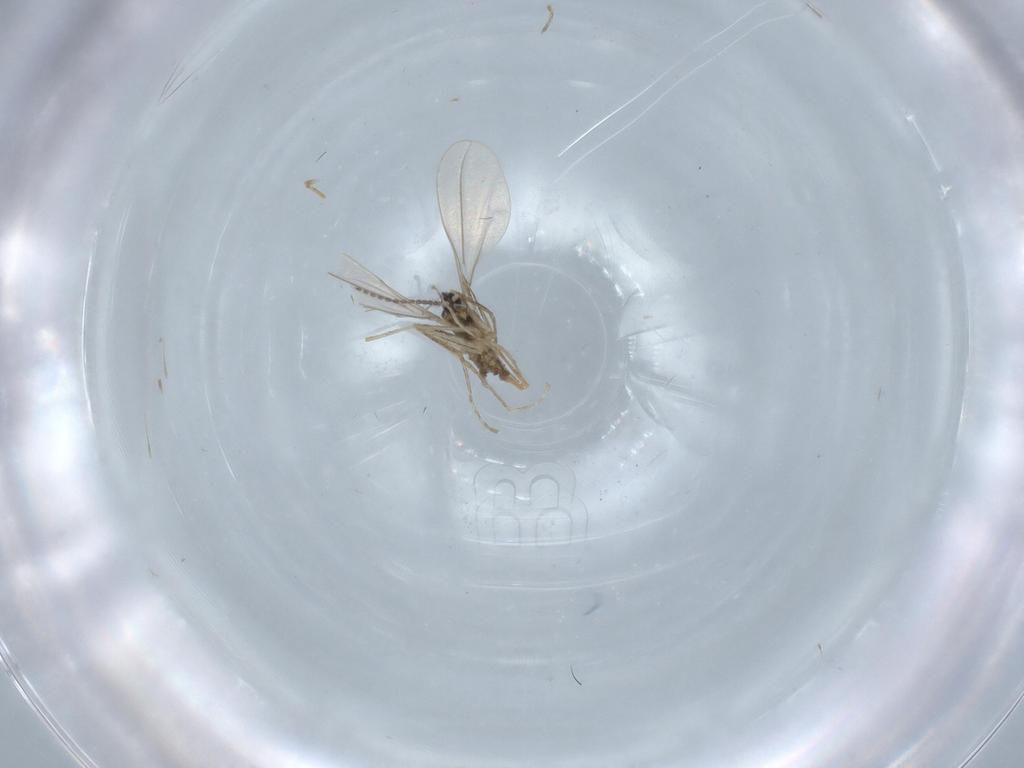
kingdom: Animalia
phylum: Arthropoda
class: Insecta
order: Diptera
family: Cecidomyiidae
